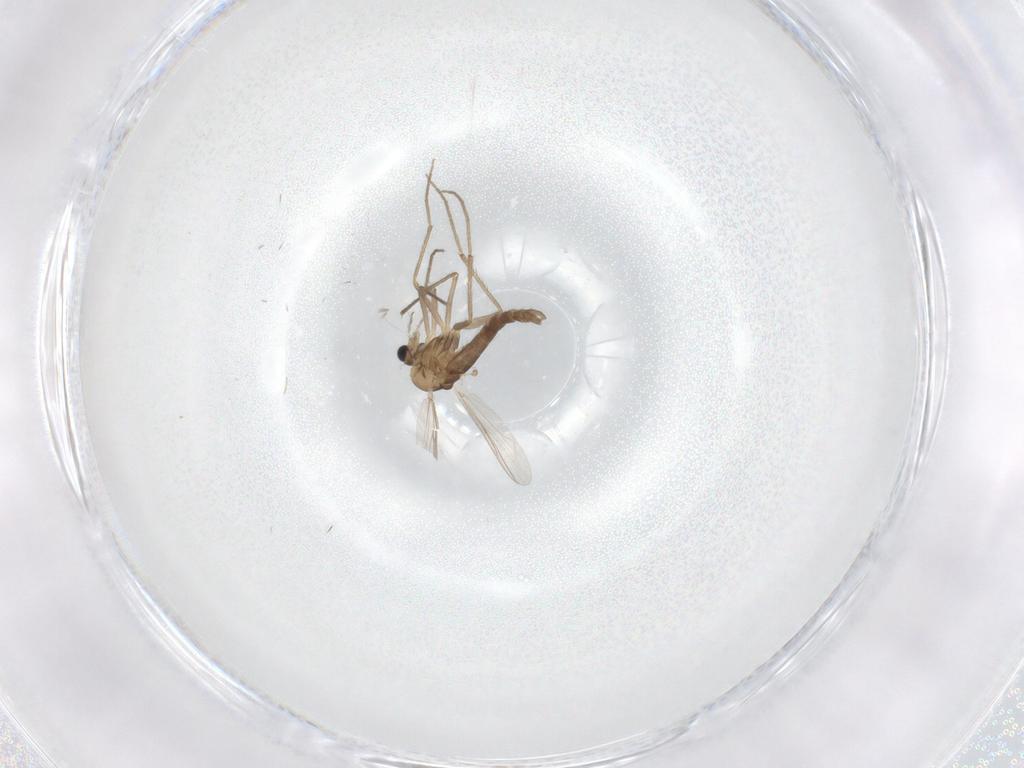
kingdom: Animalia
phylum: Arthropoda
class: Insecta
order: Diptera
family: Chironomidae
